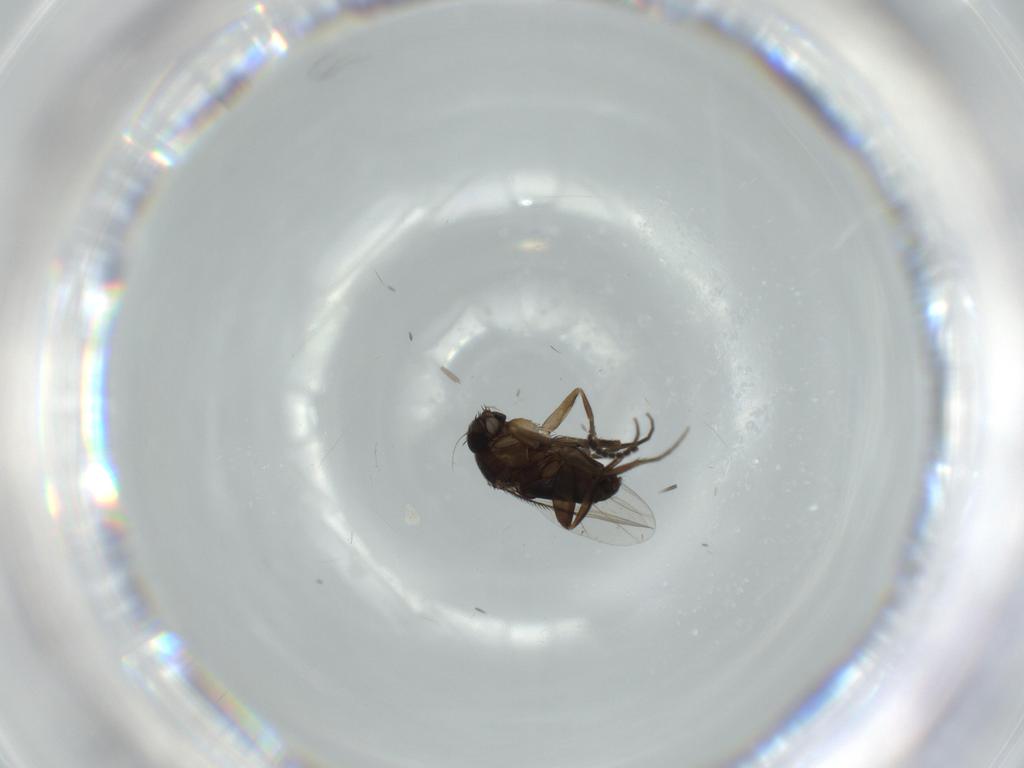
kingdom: Animalia
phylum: Arthropoda
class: Insecta
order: Diptera
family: Phoridae
